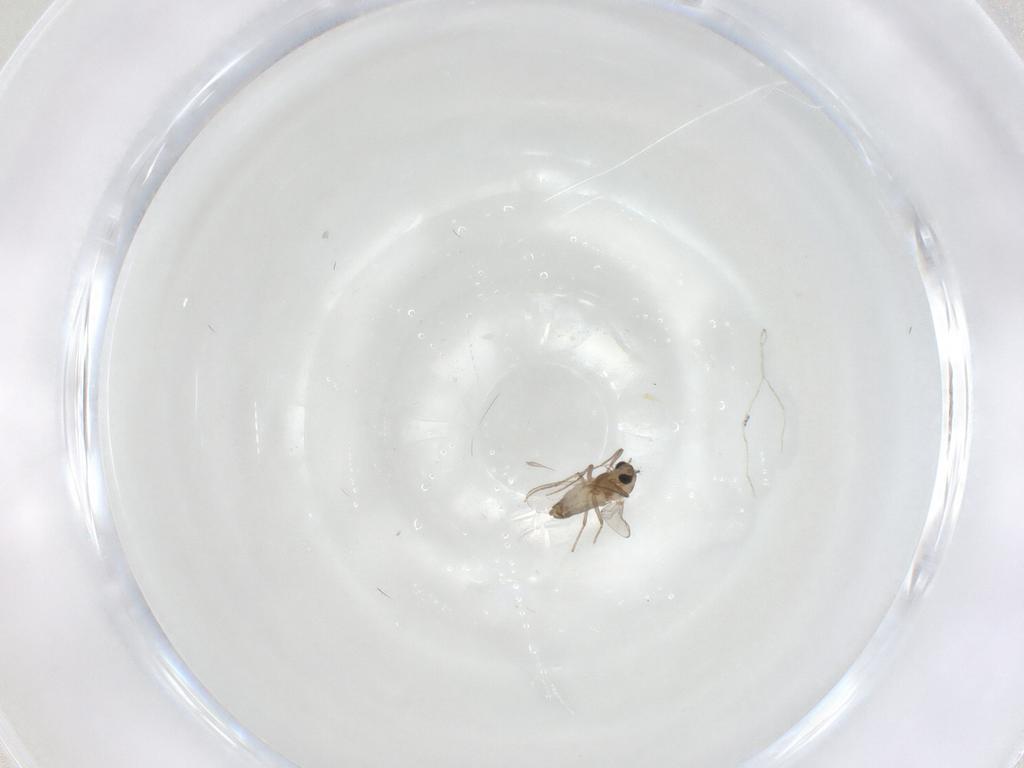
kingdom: Animalia
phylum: Arthropoda
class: Insecta
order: Diptera
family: Chironomidae
